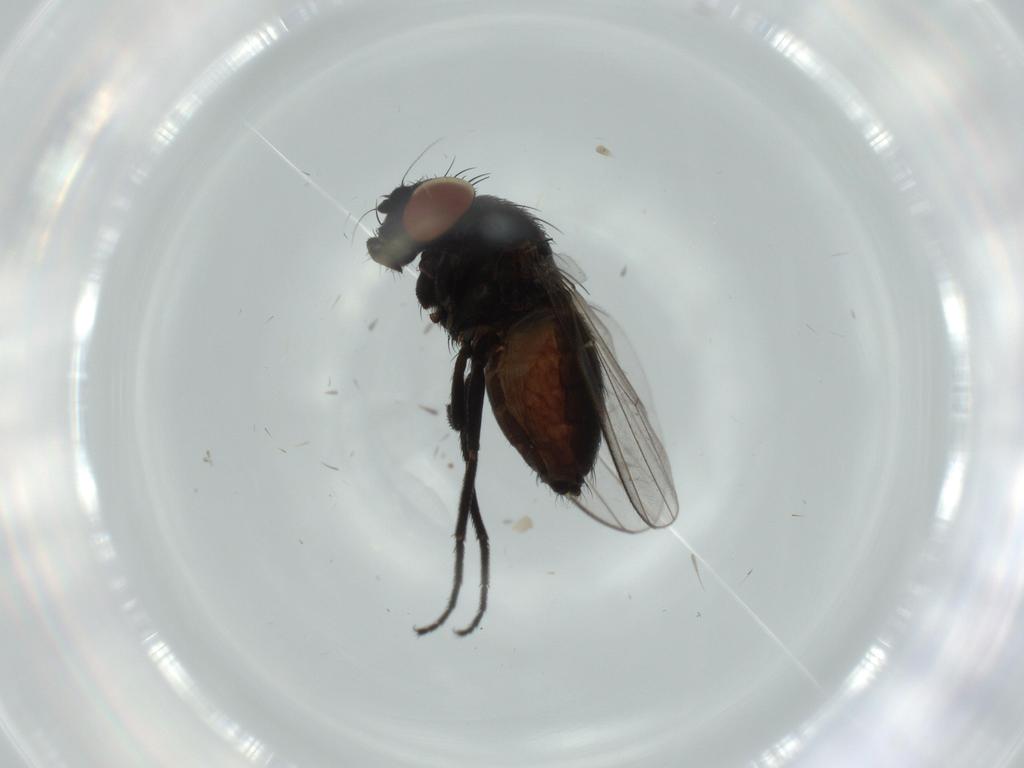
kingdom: Animalia
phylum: Arthropoda
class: Insecta
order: Diptera
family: Milichiidae
